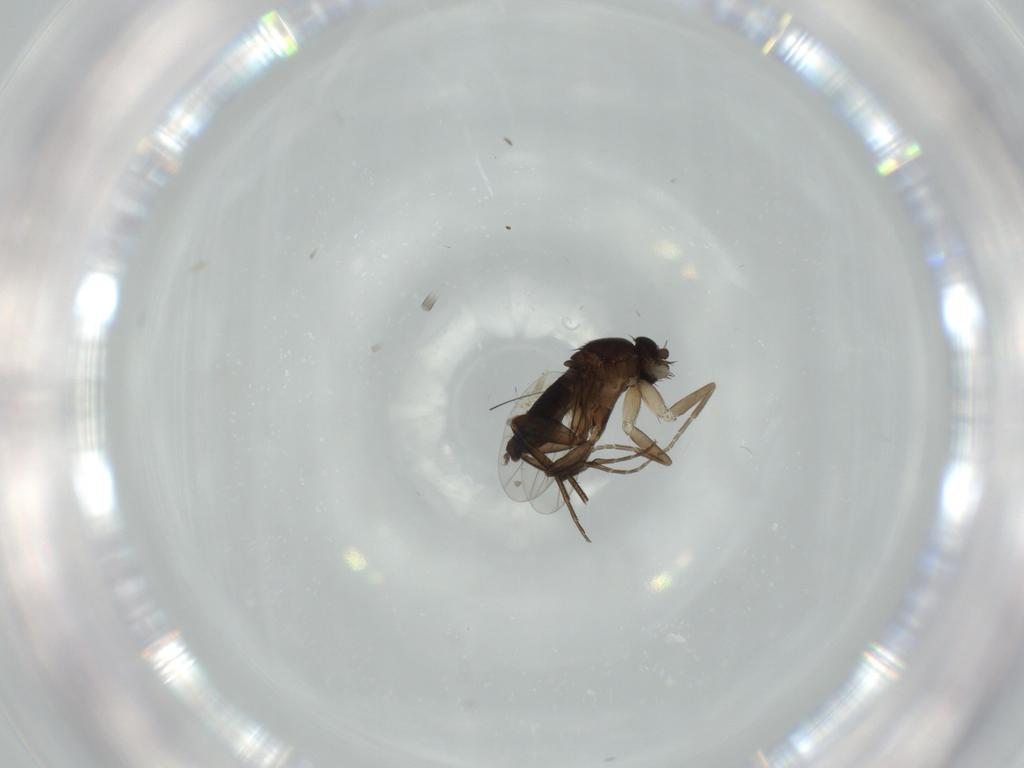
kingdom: Animalia
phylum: Arthropoda
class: Insecta
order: Diptera
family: Phoridae
